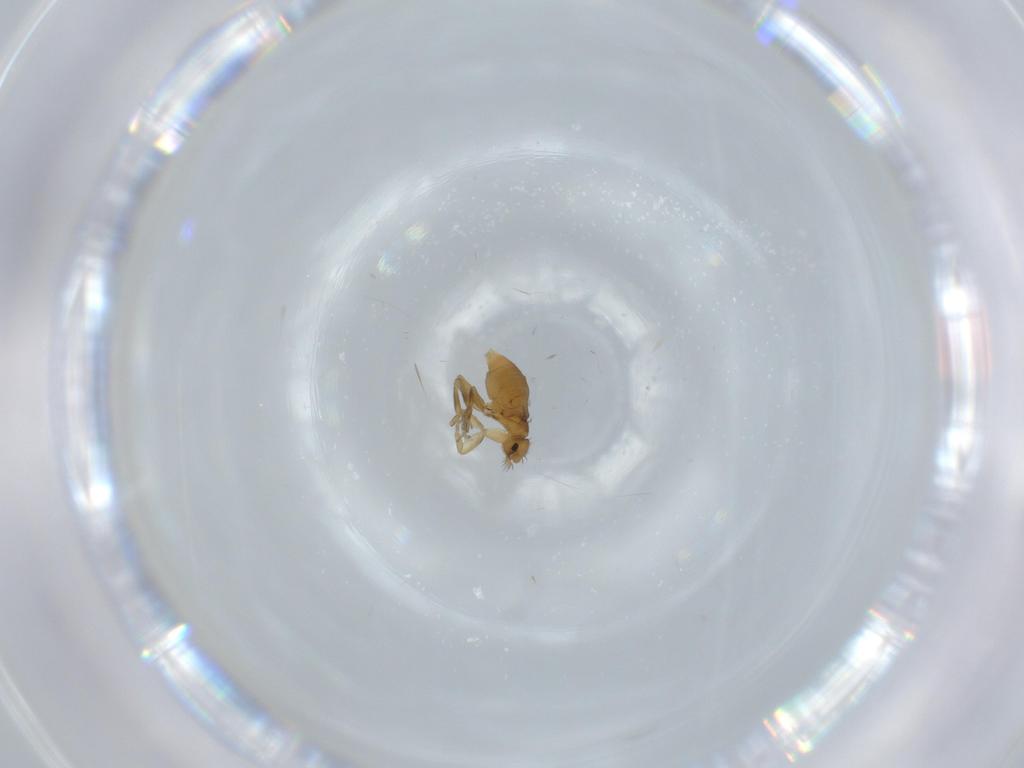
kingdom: Animalia
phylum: Arthropoda
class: Insecta
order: Diptera
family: Phoridae
